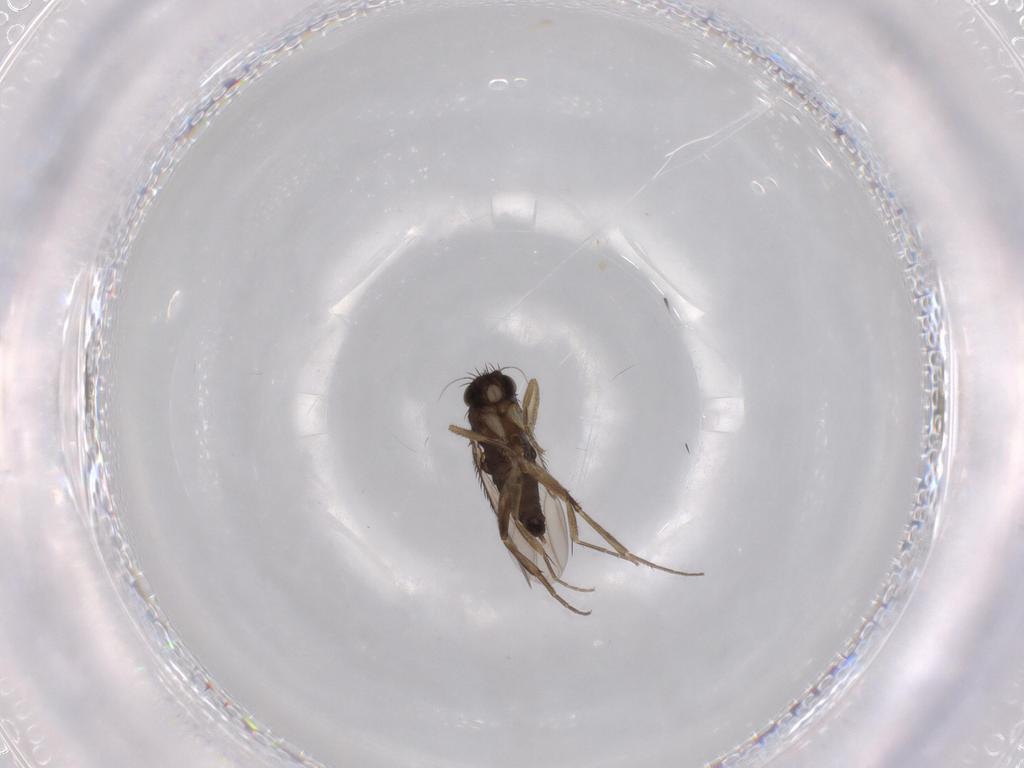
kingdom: Animalia
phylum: Arthropoda
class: Insecta
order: Diptera
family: Phoridae
